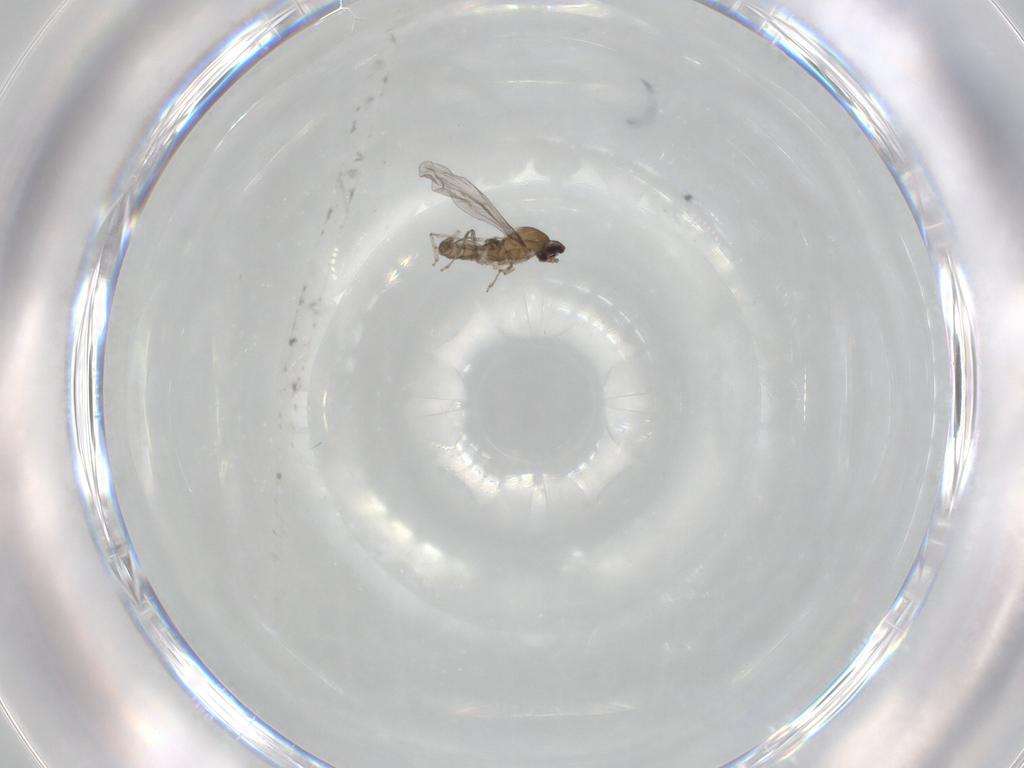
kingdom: Animalia
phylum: Arthropoda
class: Insecta
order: Diptera
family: Cecidomyiidae
